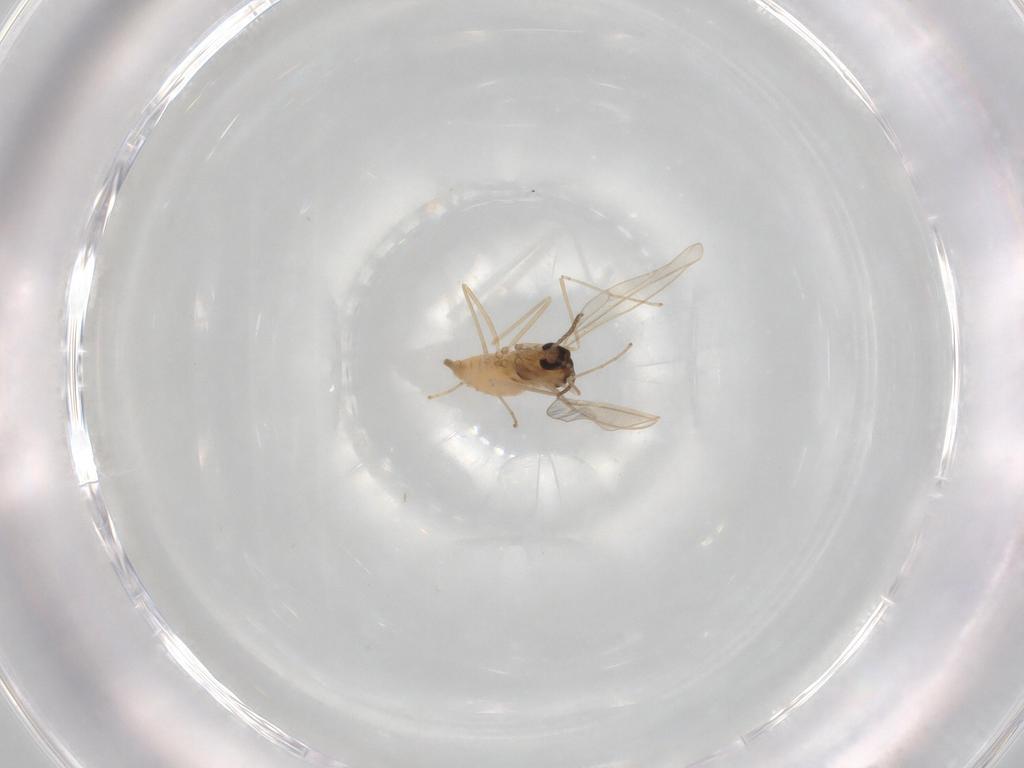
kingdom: Animalia
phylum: Arthropoda
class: Insecta
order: Diptera
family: Cecidomyiidae
